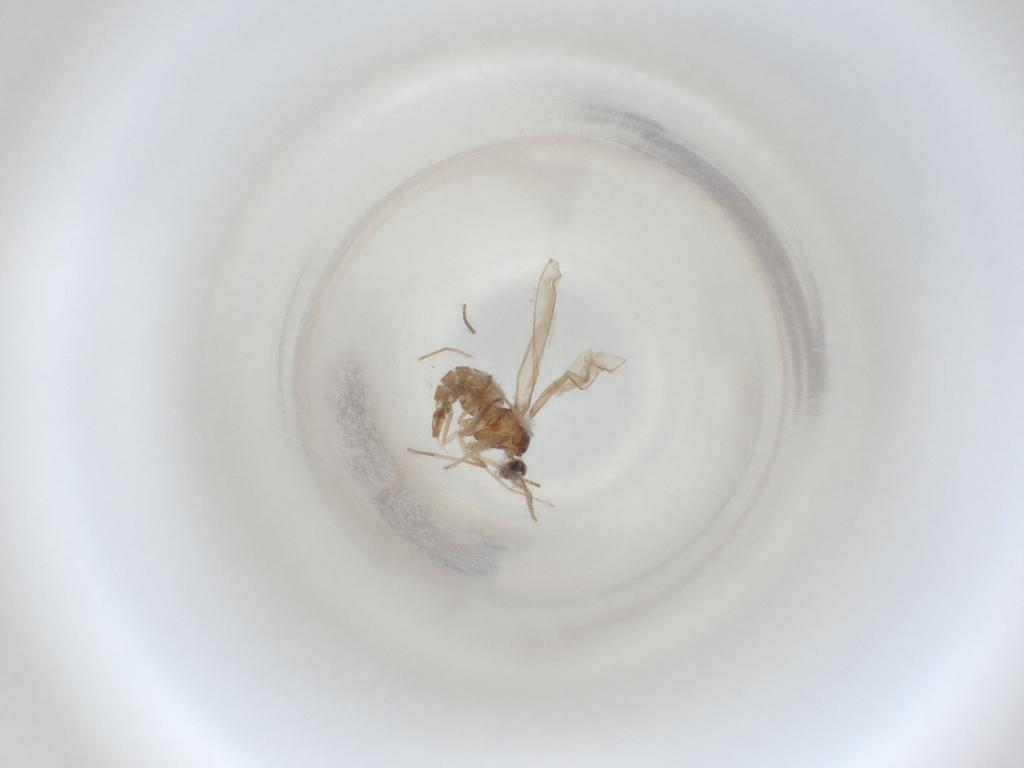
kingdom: Animalia
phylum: Arthropoda
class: Insecta
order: Diptera
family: Cecidomyiidae
